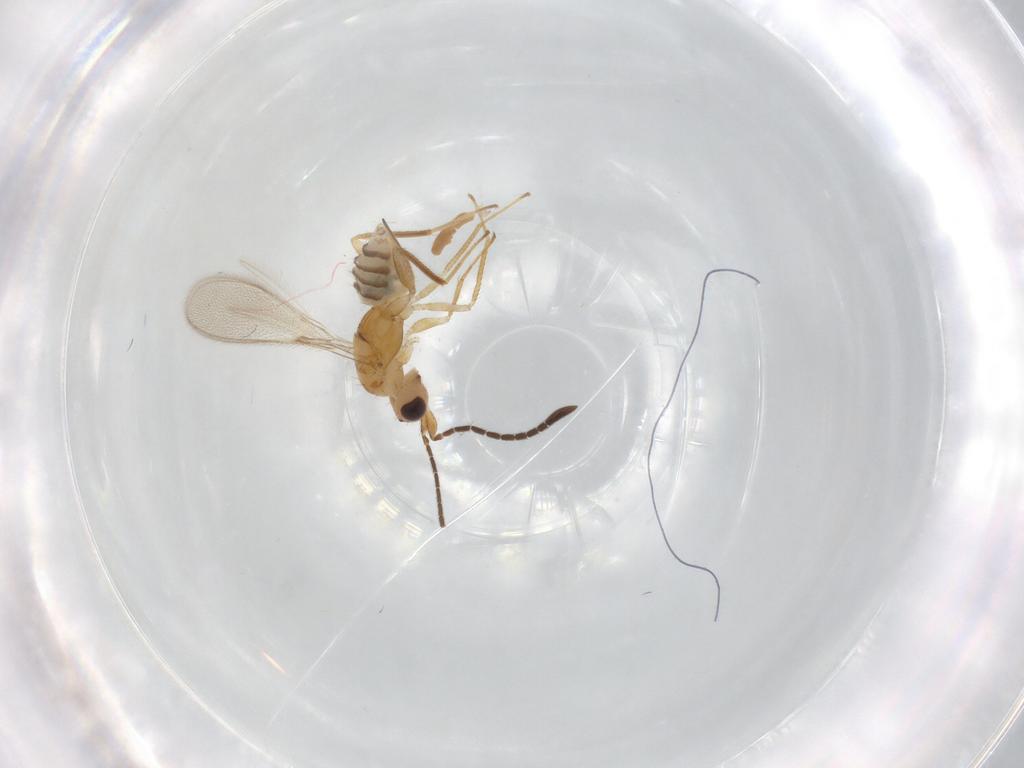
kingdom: Animalia
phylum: Arthropoda
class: Insecta
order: Hymenoptera
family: Mymaridae
